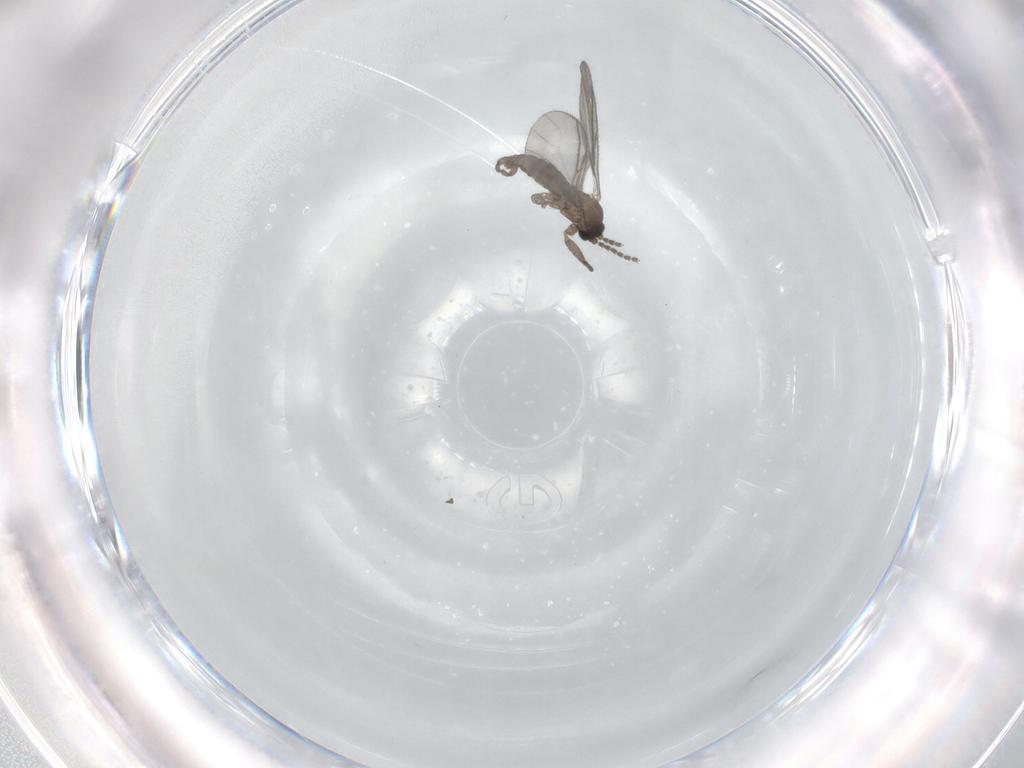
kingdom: Animalia
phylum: Arthropoda
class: Insecta
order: Diptera
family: Sciaridae
